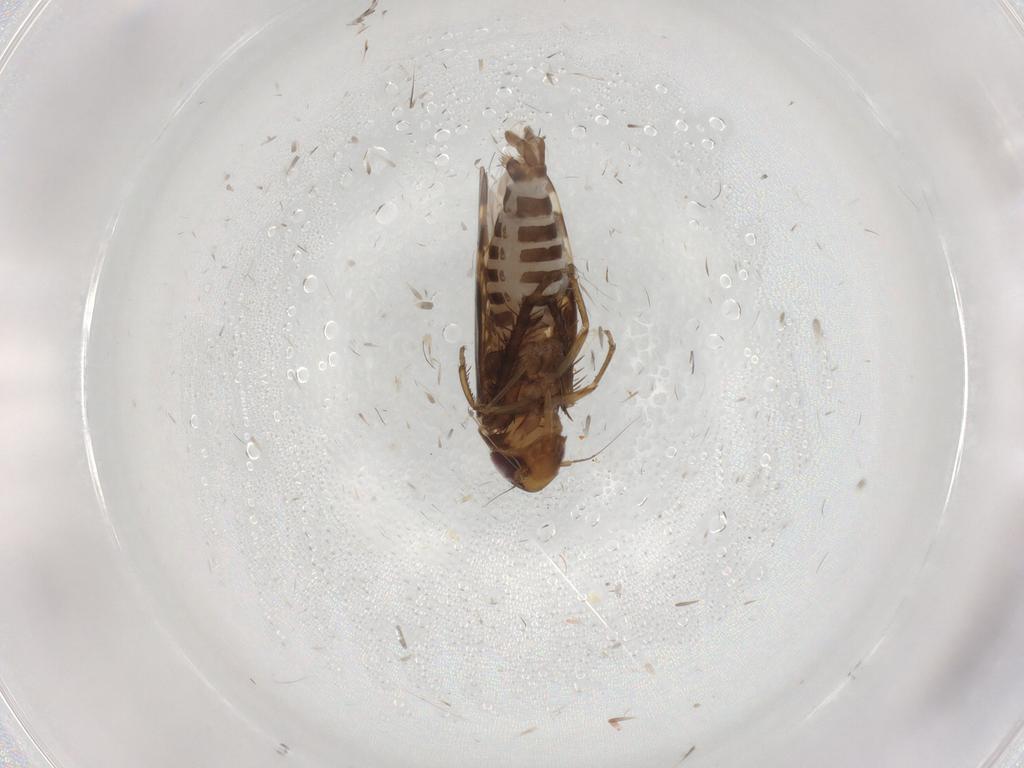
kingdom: Animalia
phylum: Arthropoda
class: Insecta
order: Hemiptera
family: Cicadellidae
